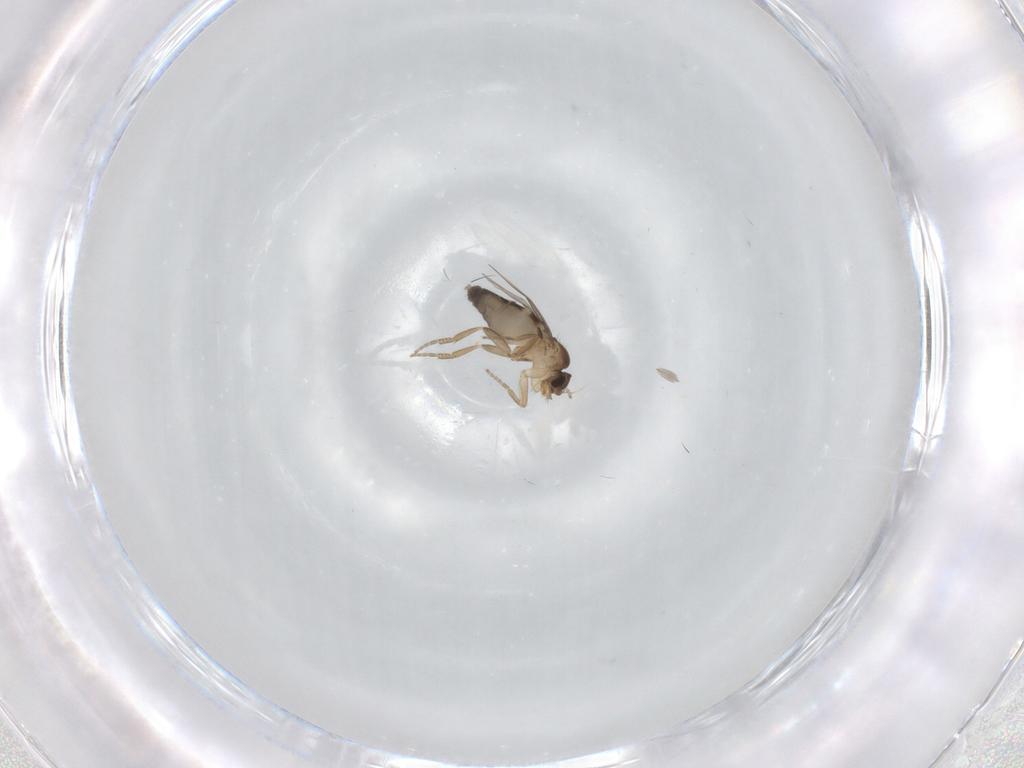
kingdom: Animalia
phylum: Arthropoda
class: Insecta
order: Diptera
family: Phoridae
